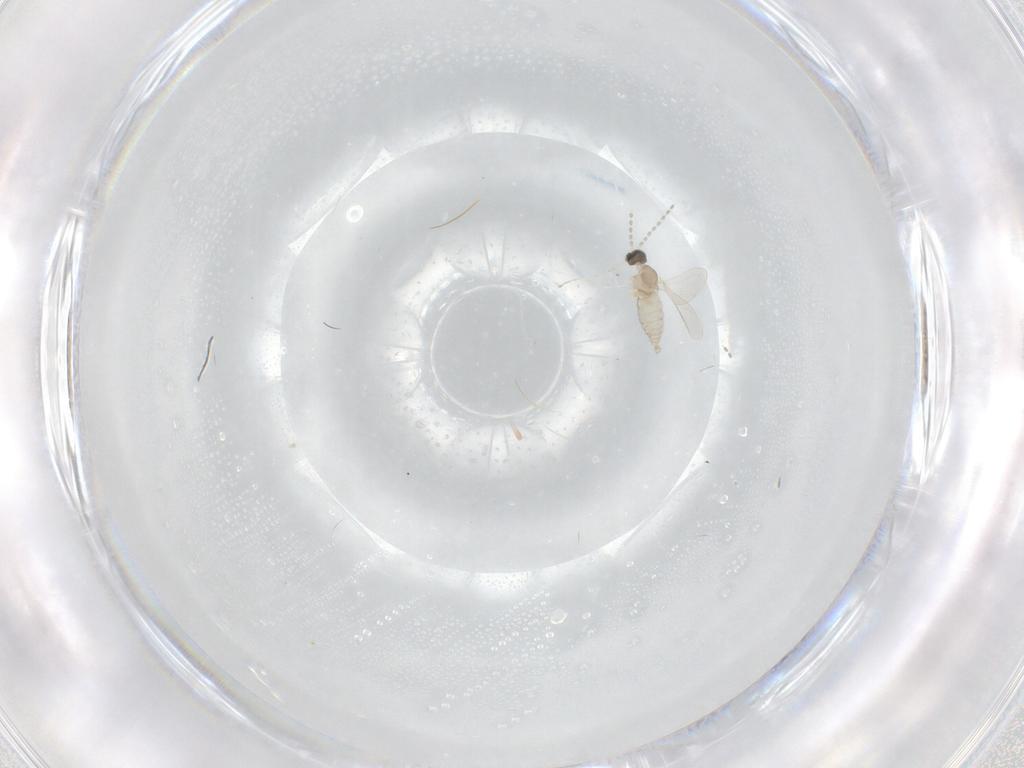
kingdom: Animalia
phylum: Arthropoda
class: Insecta
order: Diptera
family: Cecidomyiidae
